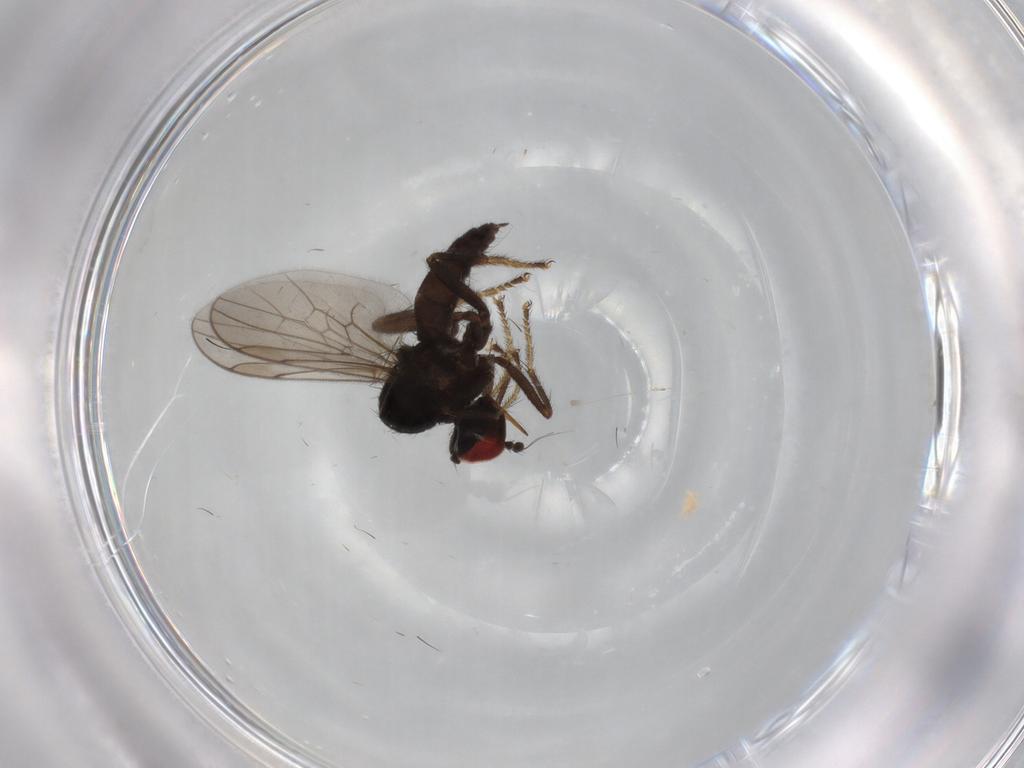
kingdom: Animalia
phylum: Arthropoda
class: Insecta
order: Diptera
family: Hybotidae
